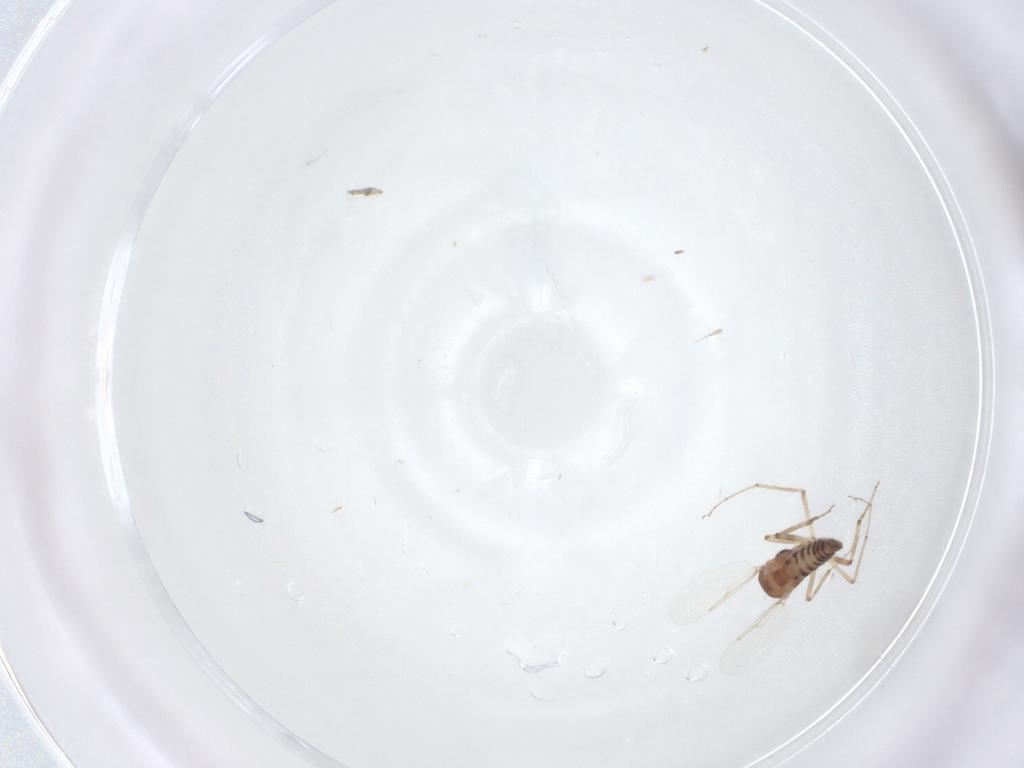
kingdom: Animalia
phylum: Arthropoda
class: Insecta
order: Diptera
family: Ceratopogonidae
